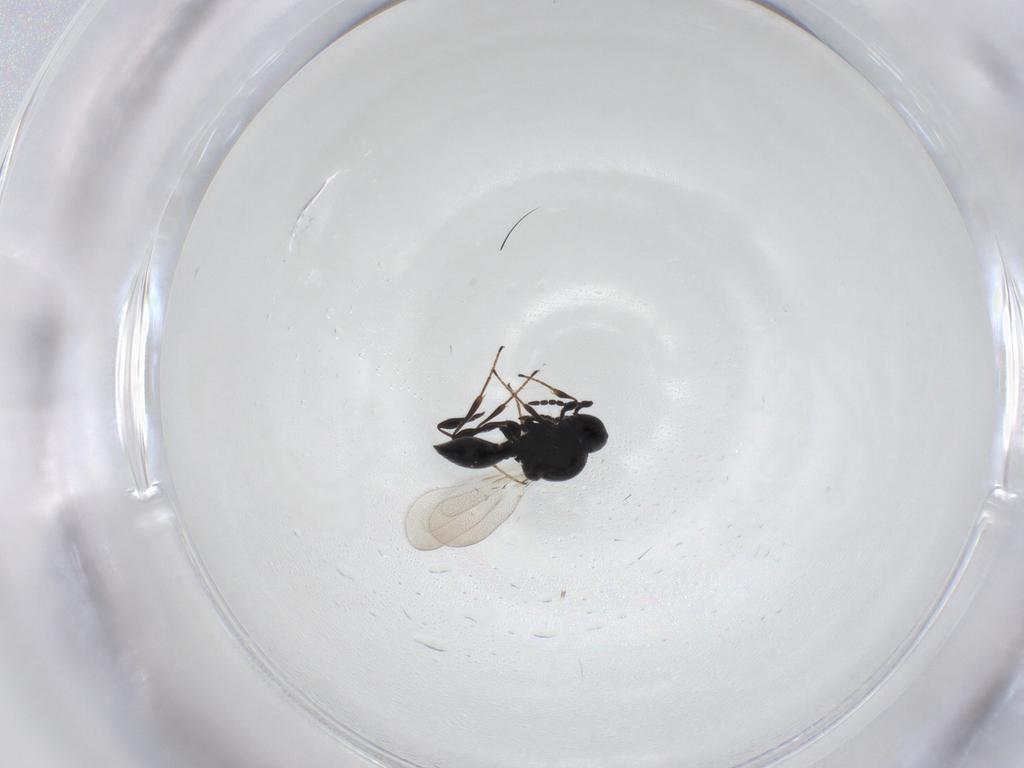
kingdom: Animalia
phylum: Arthropoda
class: Insecta
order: Hymenoptera
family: Platygastridae
